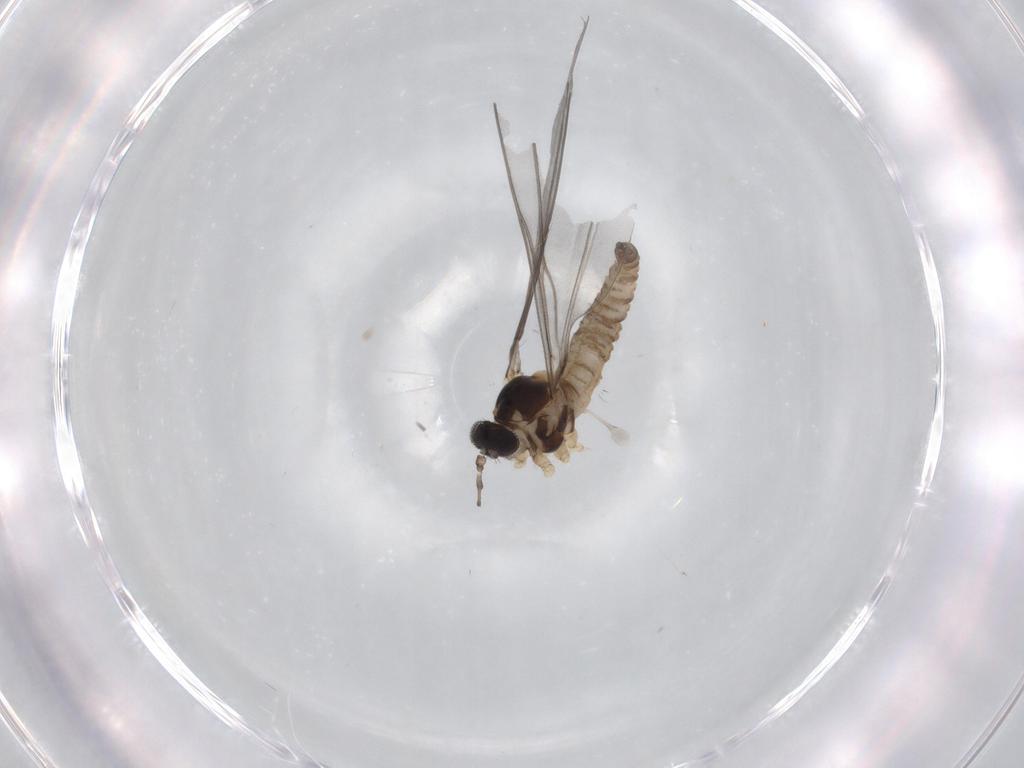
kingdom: Animalia
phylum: Arthropoda
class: Insecta
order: Diptera
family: Cecidomyiidae
